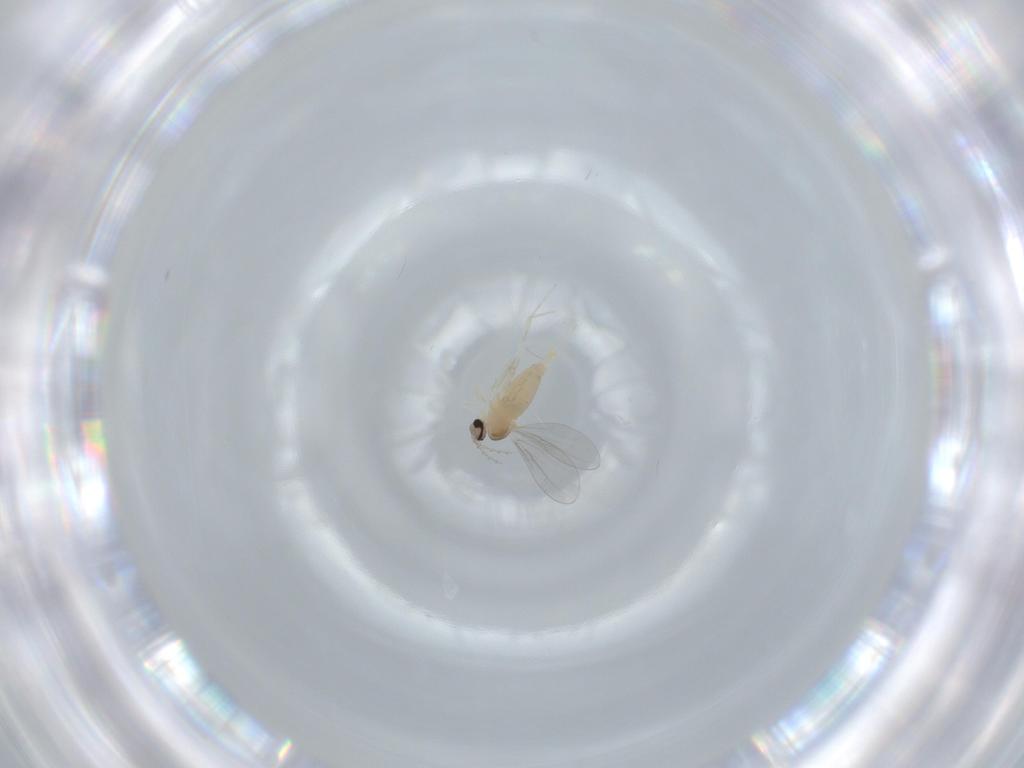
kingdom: Animalia
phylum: Arthropoda
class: Insecta
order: Diptera
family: Cecidomyiidae
